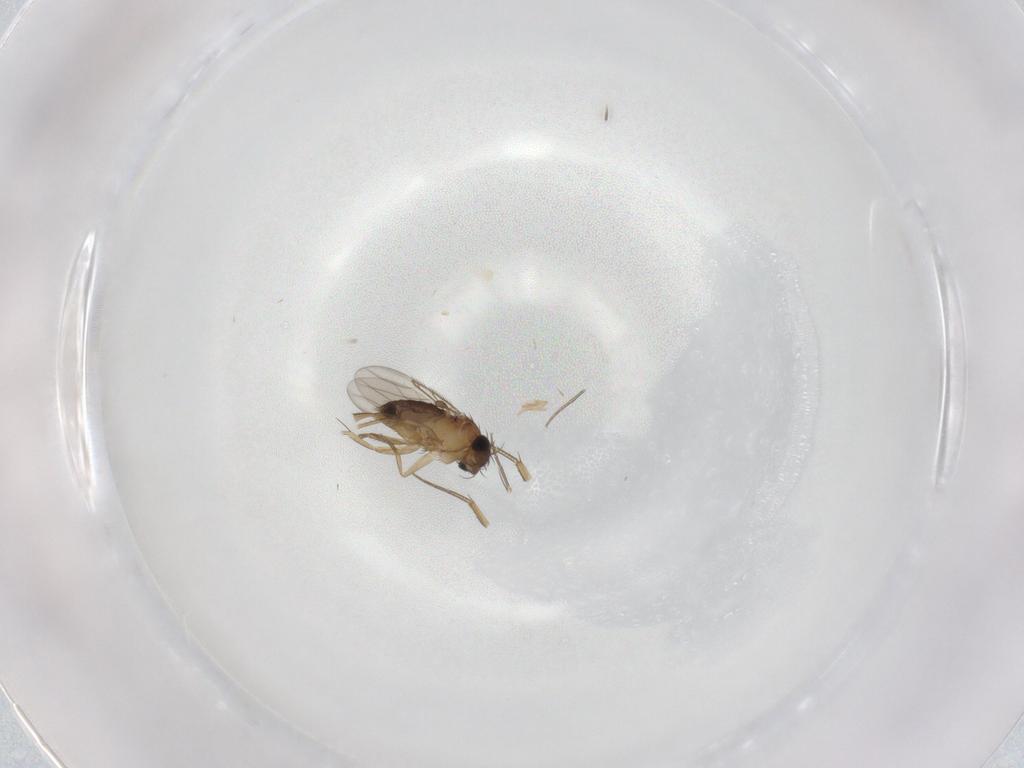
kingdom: Animalia
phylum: Arthropoda
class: Insecta
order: Diptera
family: Phoridae
